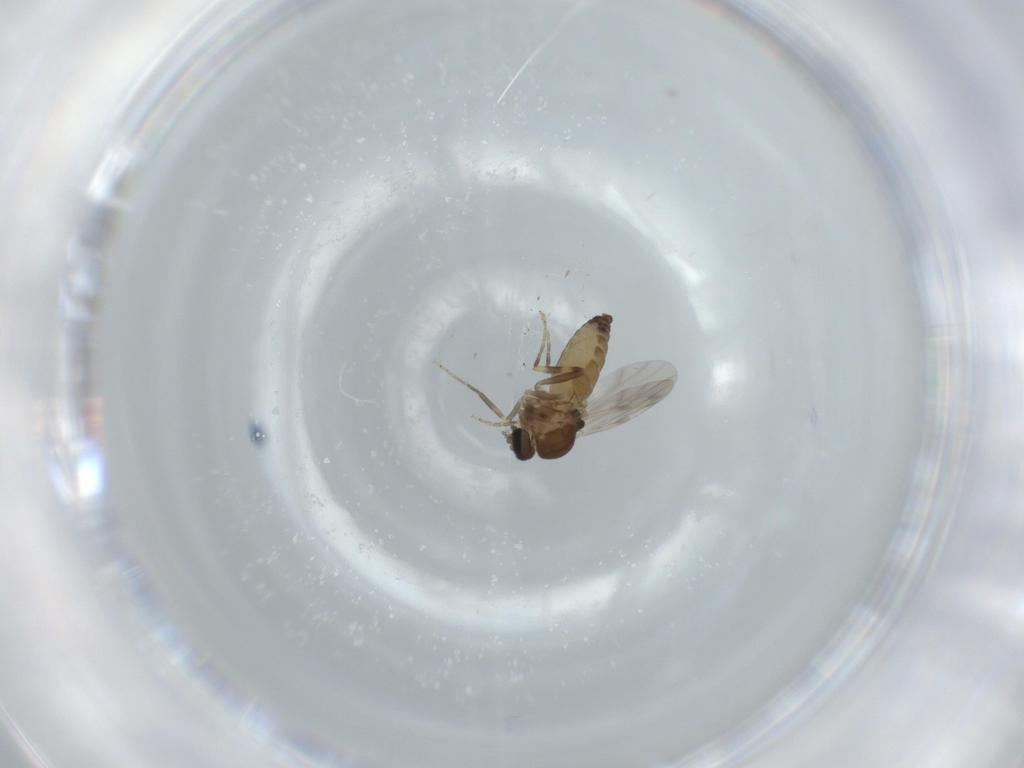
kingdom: Animalia
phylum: Arthropoda
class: Insecta
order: Diptera
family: Ceratopogonidae
